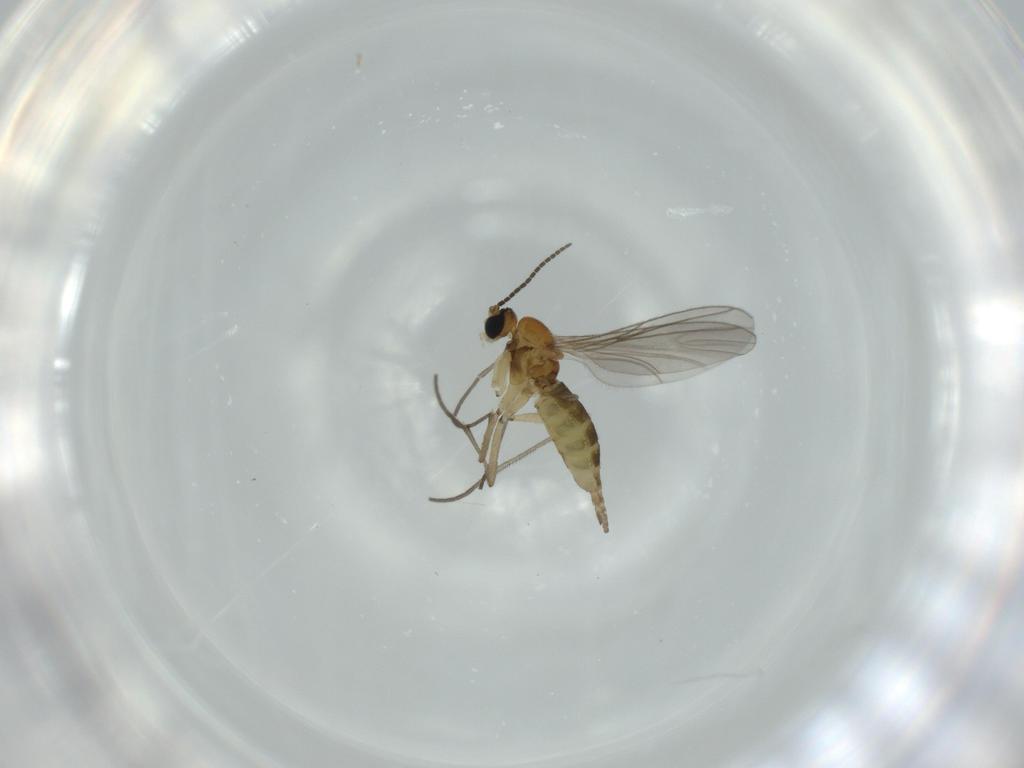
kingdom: Animalia
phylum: Arthropoda
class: Insecta
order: Diptera
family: Sciaridae
